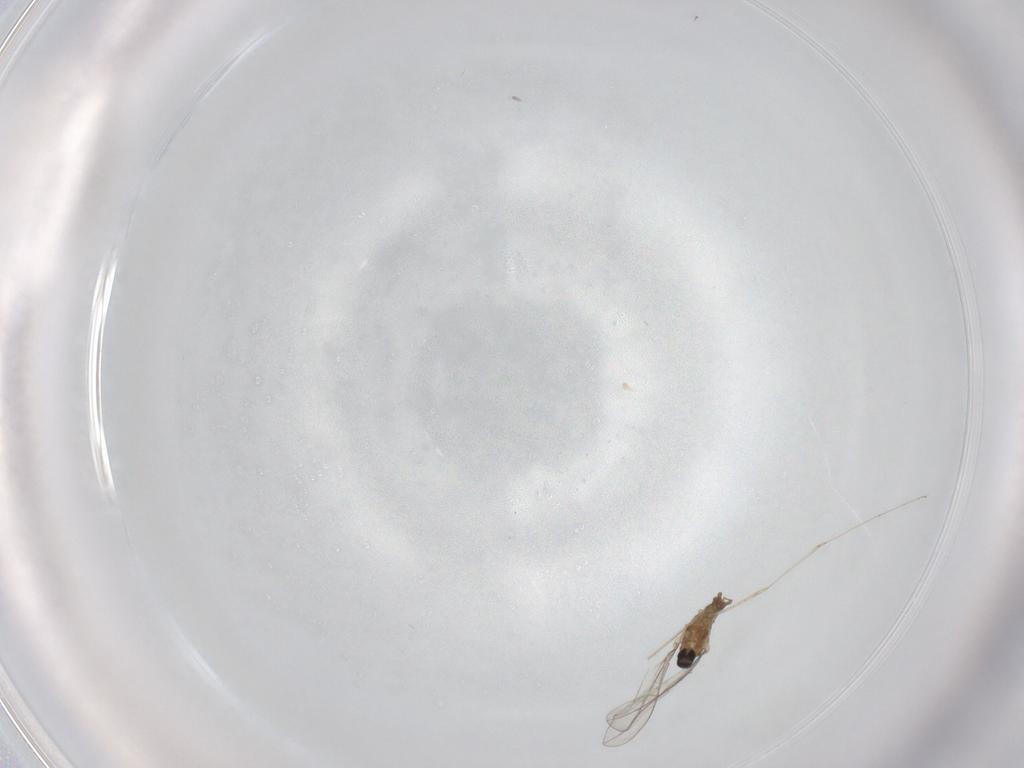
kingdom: Animalia
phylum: Arthropoda
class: Insecta
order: Diptera
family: Cecidomyiidae
